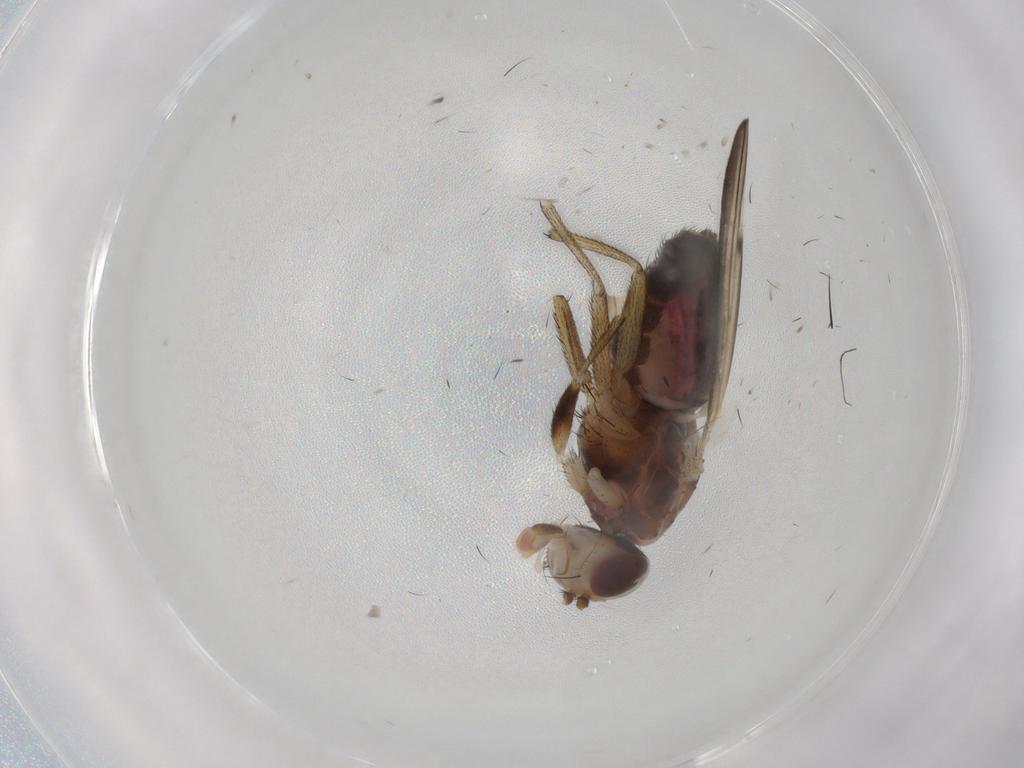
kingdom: Animalia
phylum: Arthropoda
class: Insecta
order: Diptera
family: Heleomyzidae
